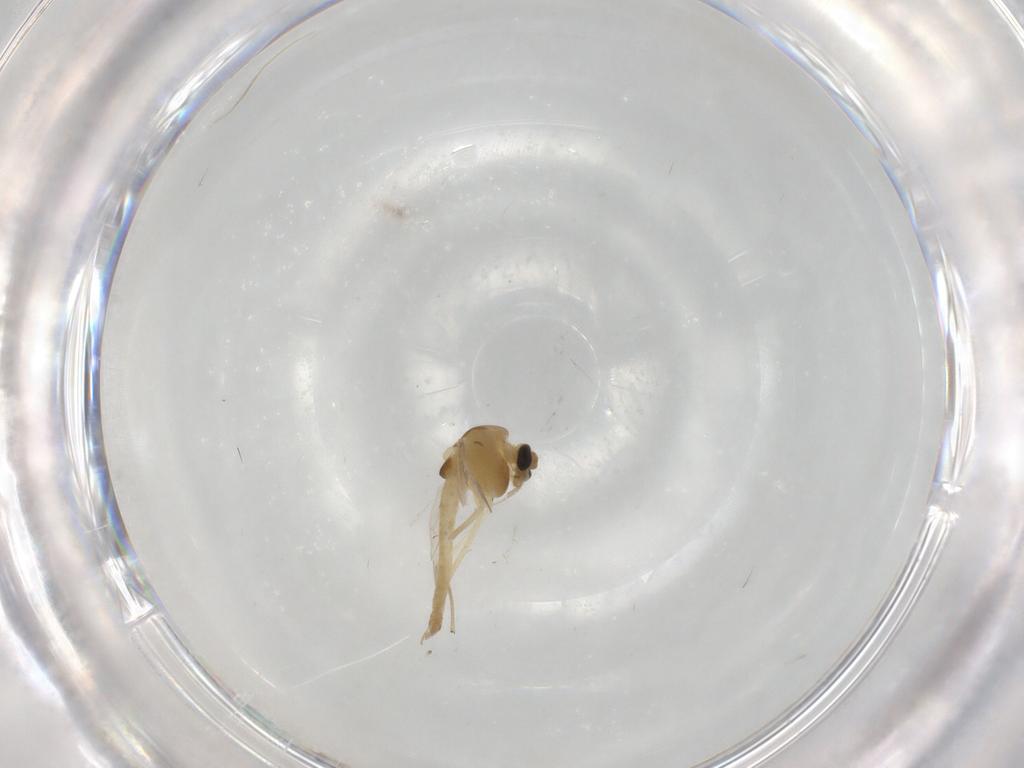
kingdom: Animalia
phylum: Arthropoda
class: Insecta
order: Diptera
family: Chironomidae
